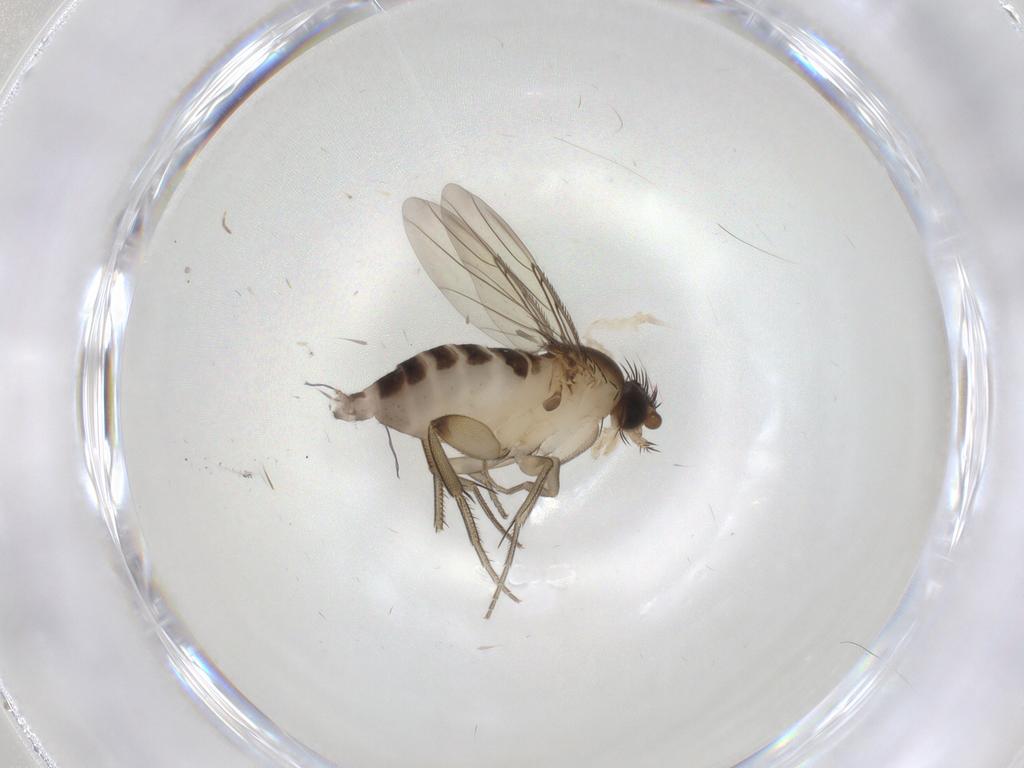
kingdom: Animalia
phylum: Arthropoda
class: Insecta
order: Diptera
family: Phoridae
